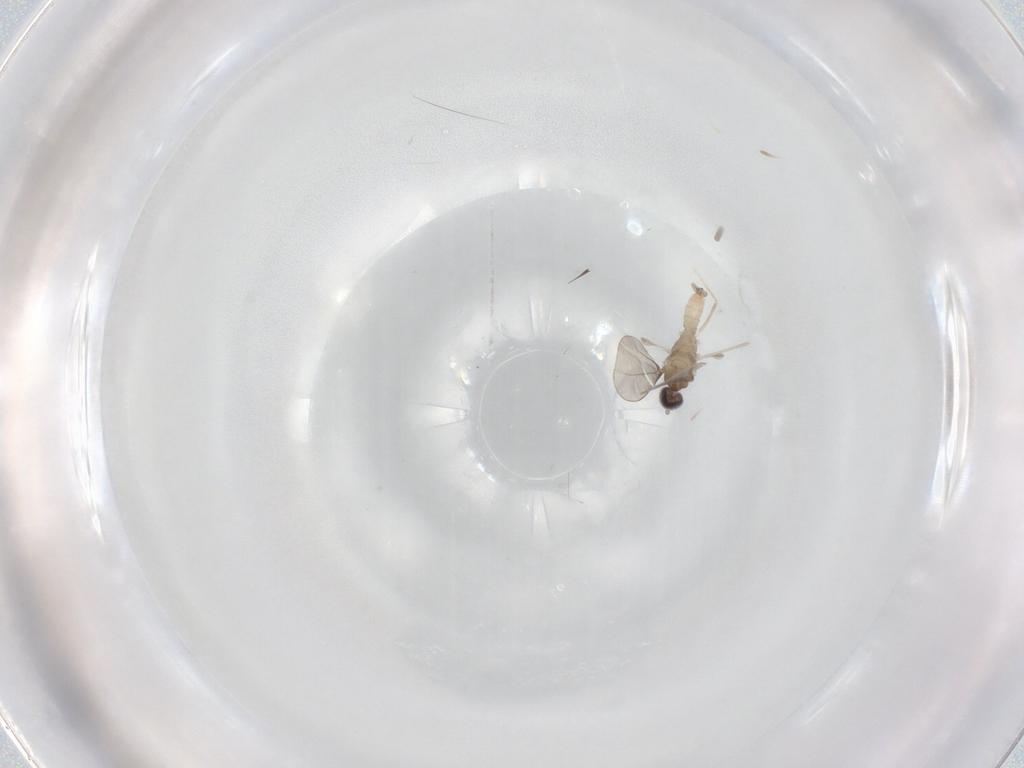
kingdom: Animalia
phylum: Arthropoda
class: Insecta
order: Diptera
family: Cecidomyiidae
